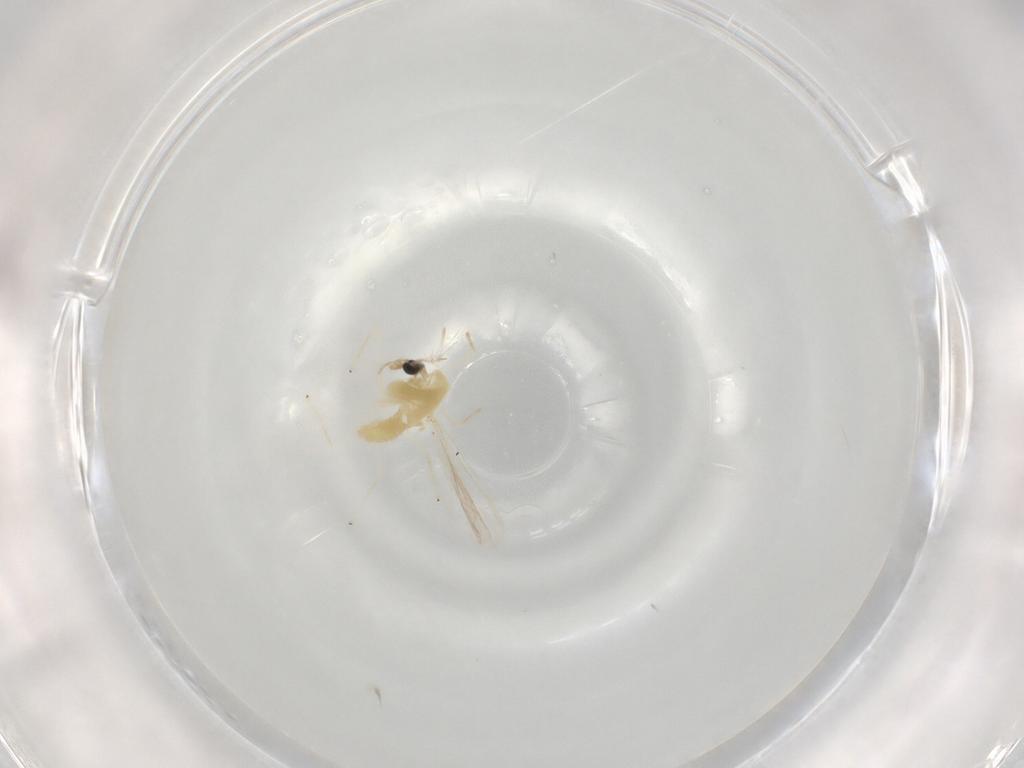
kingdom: Animalia
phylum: Arthropoda
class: Insecta
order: Diptera
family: Chironomidae
